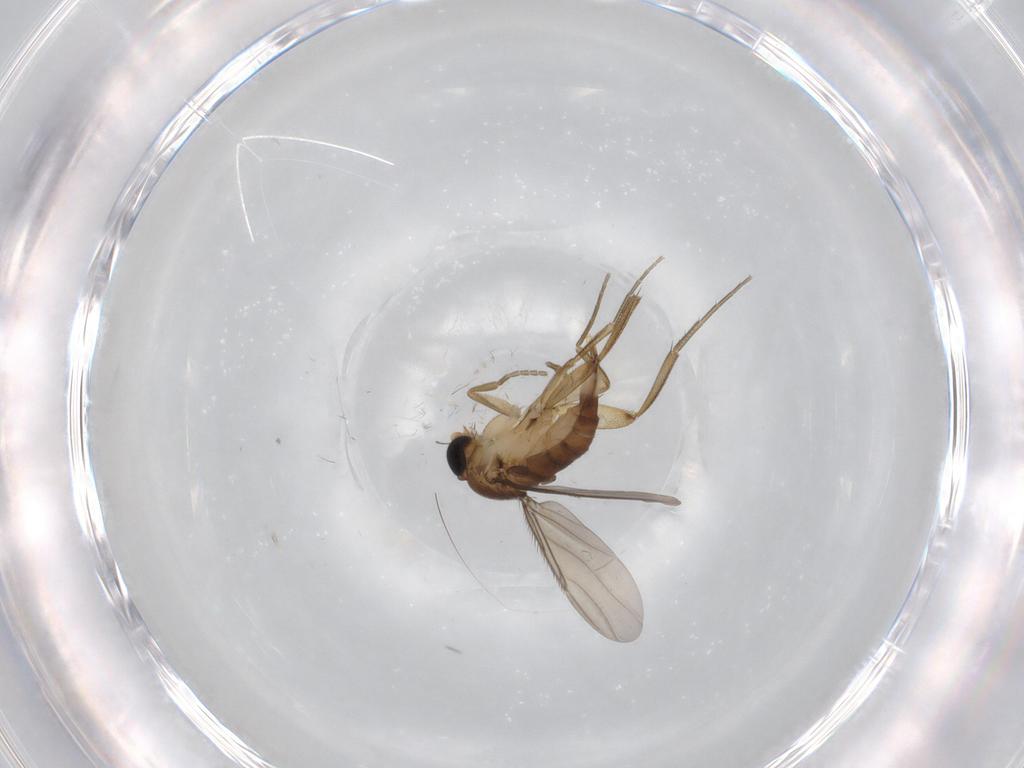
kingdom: Animalia
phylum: Arthropoda
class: Insecta
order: Diptera
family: Phoridae
